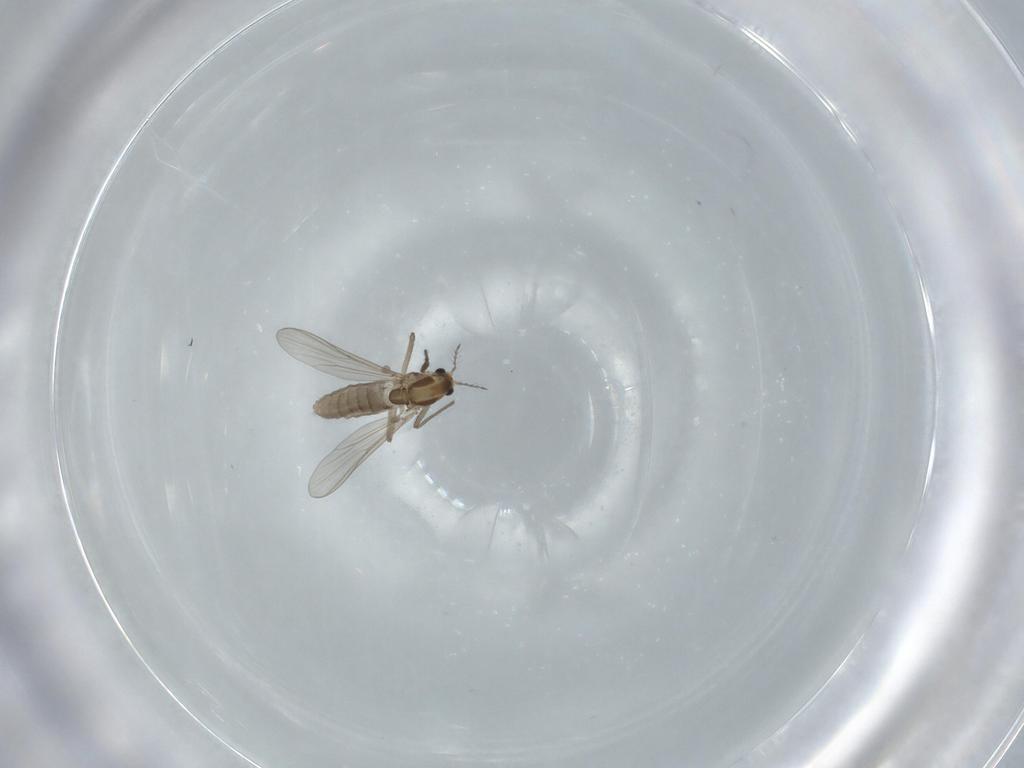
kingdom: Animalia
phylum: Arthropoda
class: Insecta
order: Diptera
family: Chironomidae
